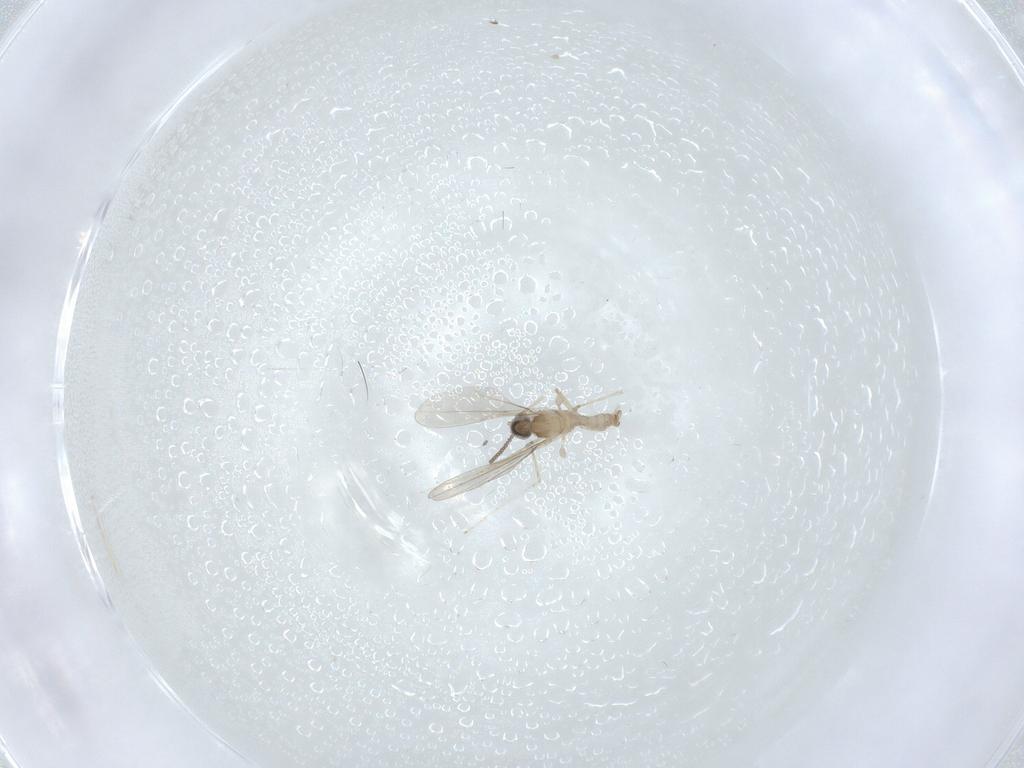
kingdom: Animalia
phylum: Arthropoda
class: Insecta
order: Diptera
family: Cecidomyiidae
